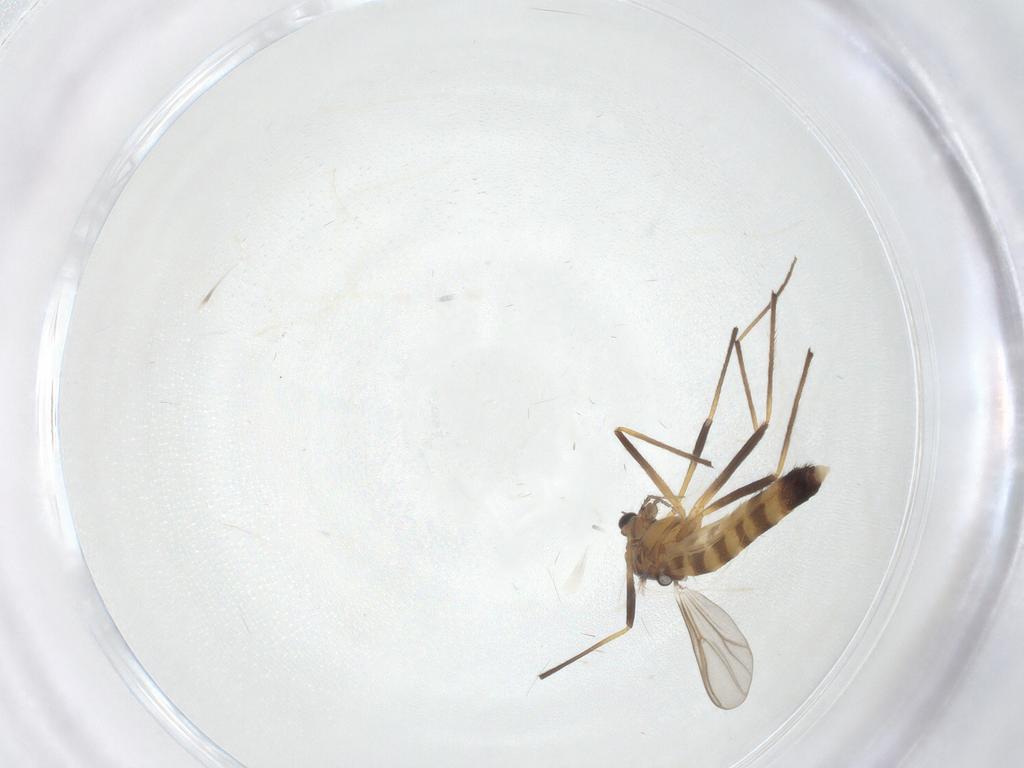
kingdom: Animalia
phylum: Arthropoda
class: Insecta
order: Diptera
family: Chironomidae
